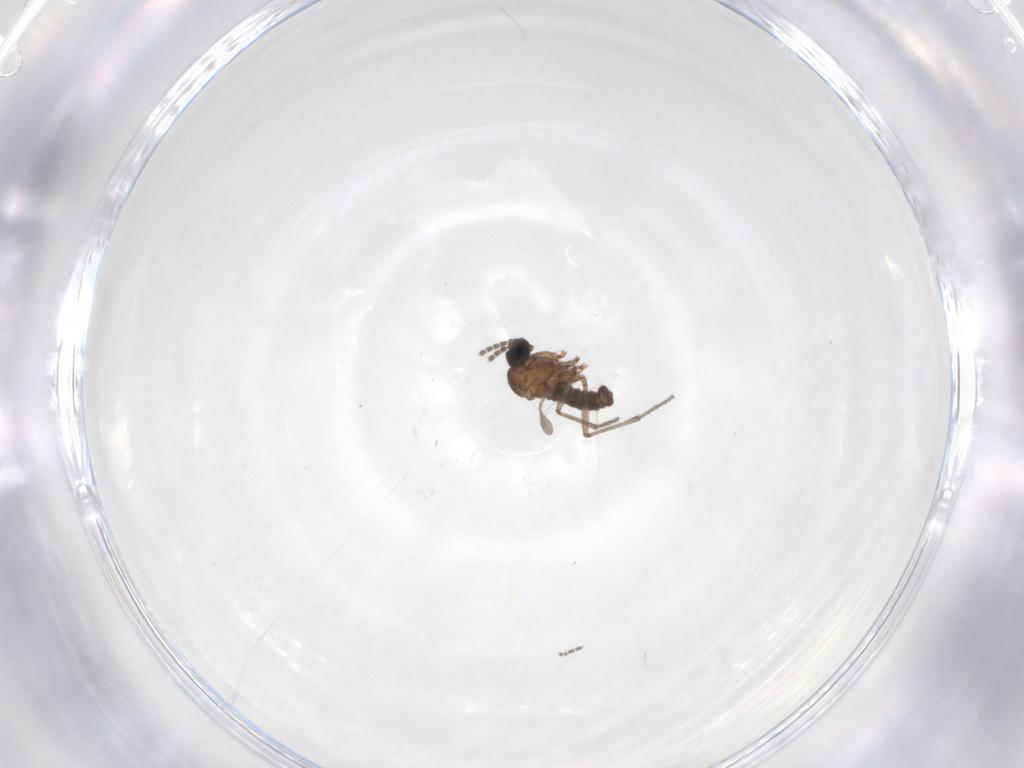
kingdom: Animalia
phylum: Arthropoda
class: Insecta
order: Diptera
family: Sciaridae
